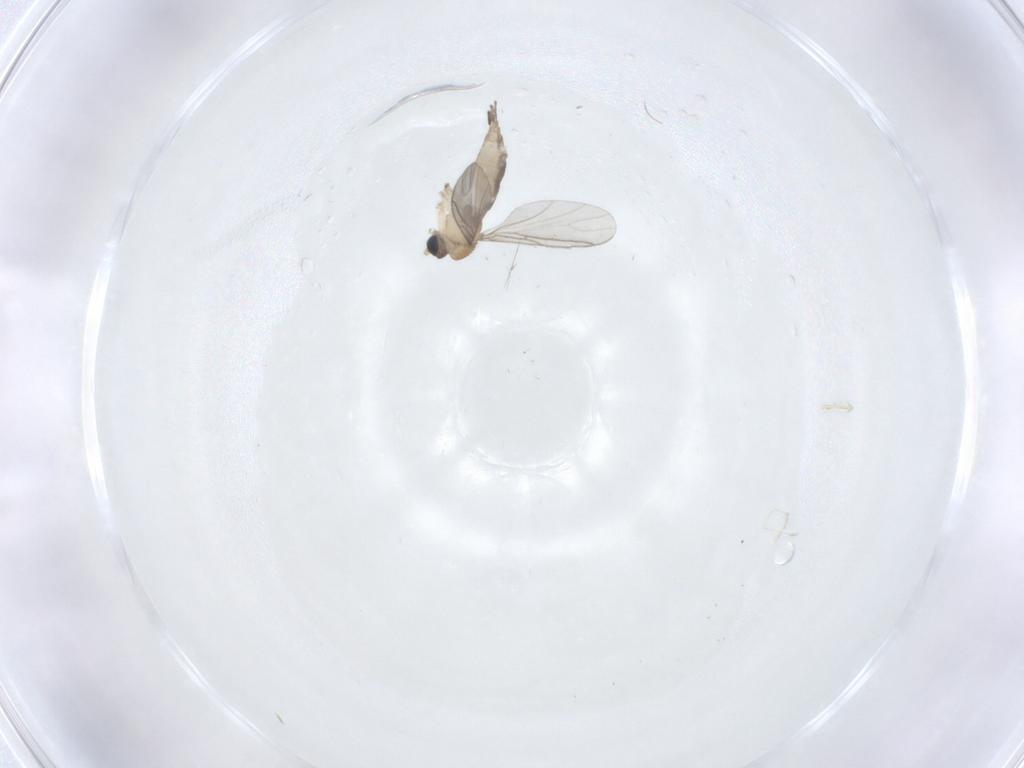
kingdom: Animalia
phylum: Arthropoda
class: Insecta
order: Diptera
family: Sciaridae
